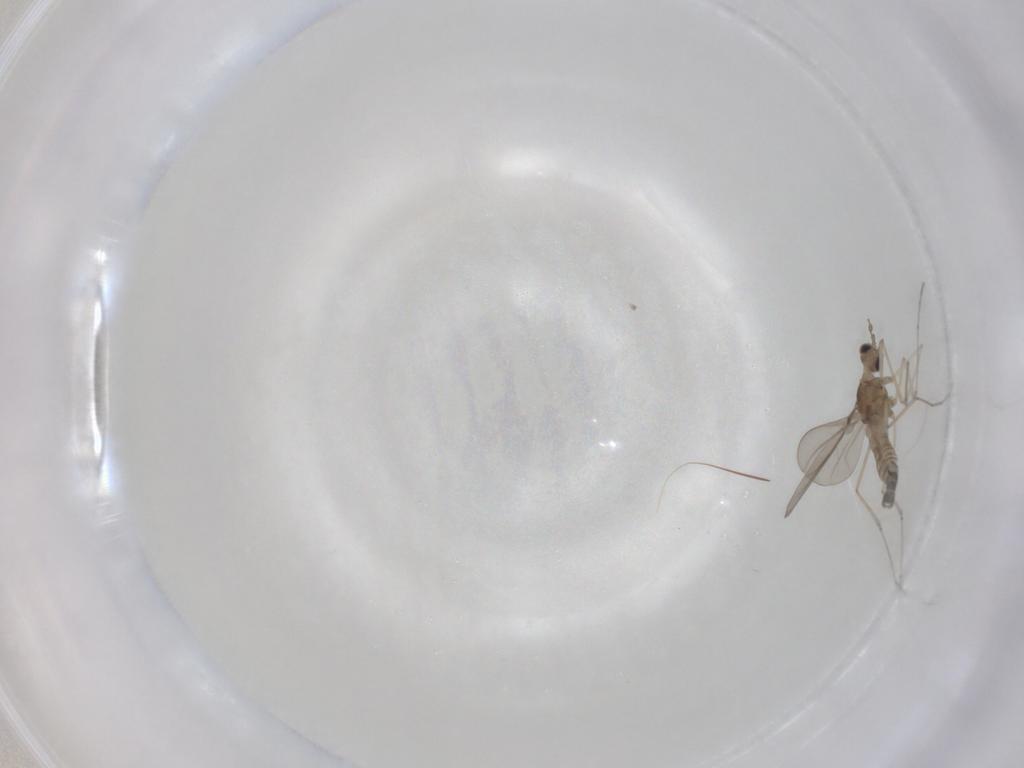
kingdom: Animalia
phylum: Arthropoda
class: Insecta
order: Diptera
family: Cecidomyiidae
